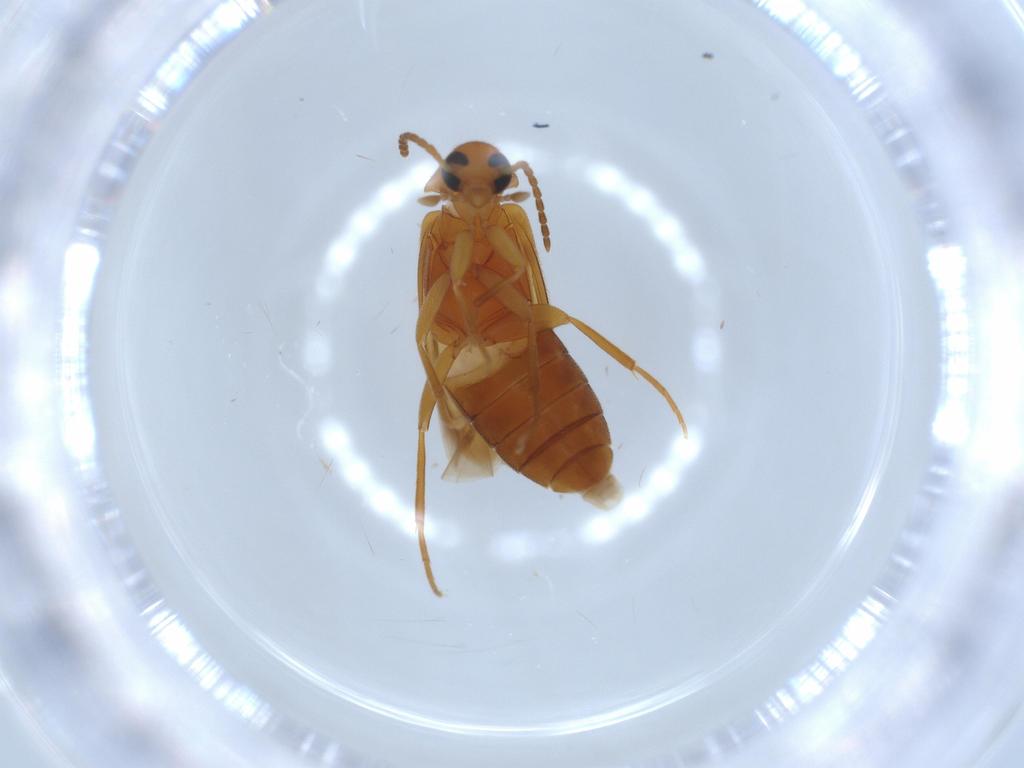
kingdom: Animalia
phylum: Arthropoda
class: Insecta
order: Coleoptera
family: Scraptiidae
